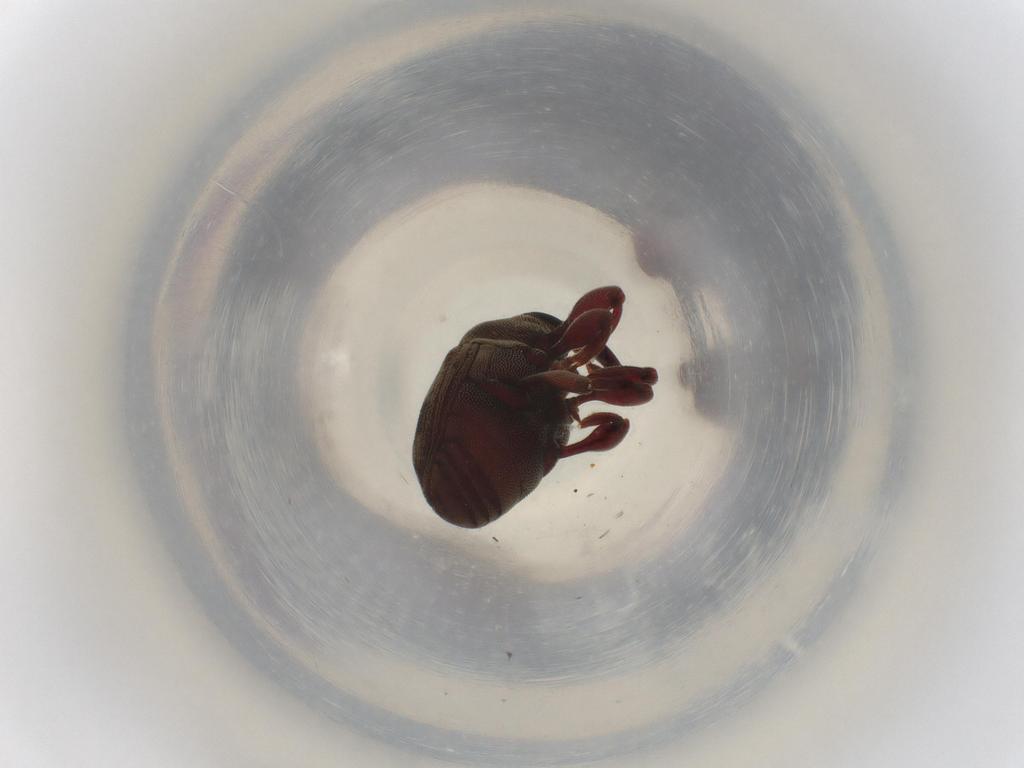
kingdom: Animalia
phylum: Arthropoda
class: Insecta
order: Coleoptera
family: Curculionidae
